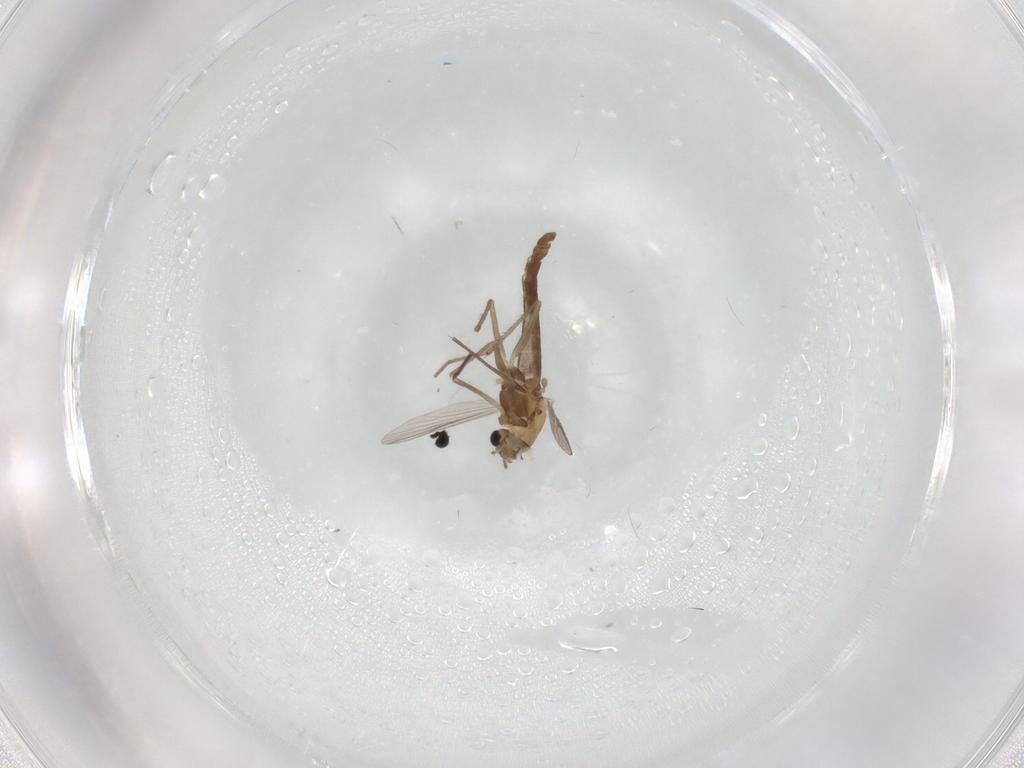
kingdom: Animalia
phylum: Arthropoda
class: Insecta
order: Diptera
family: Chironomidae
